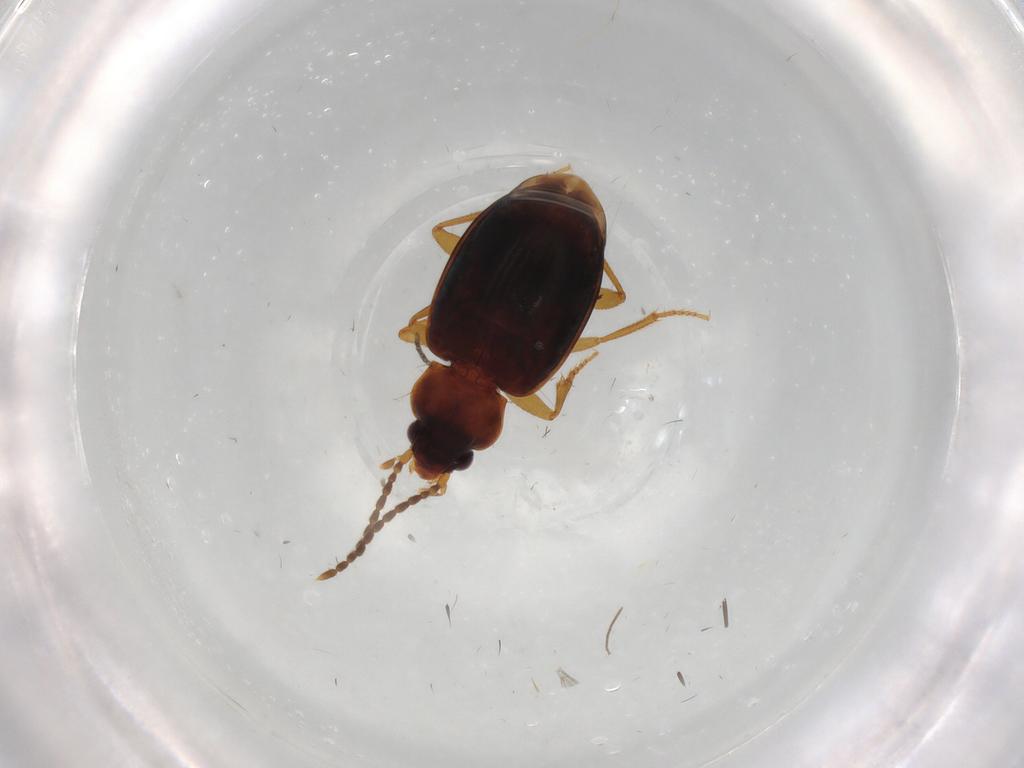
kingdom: Animalia
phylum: Arthropoda
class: Insecta
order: Coleoptera
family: Carabidae
